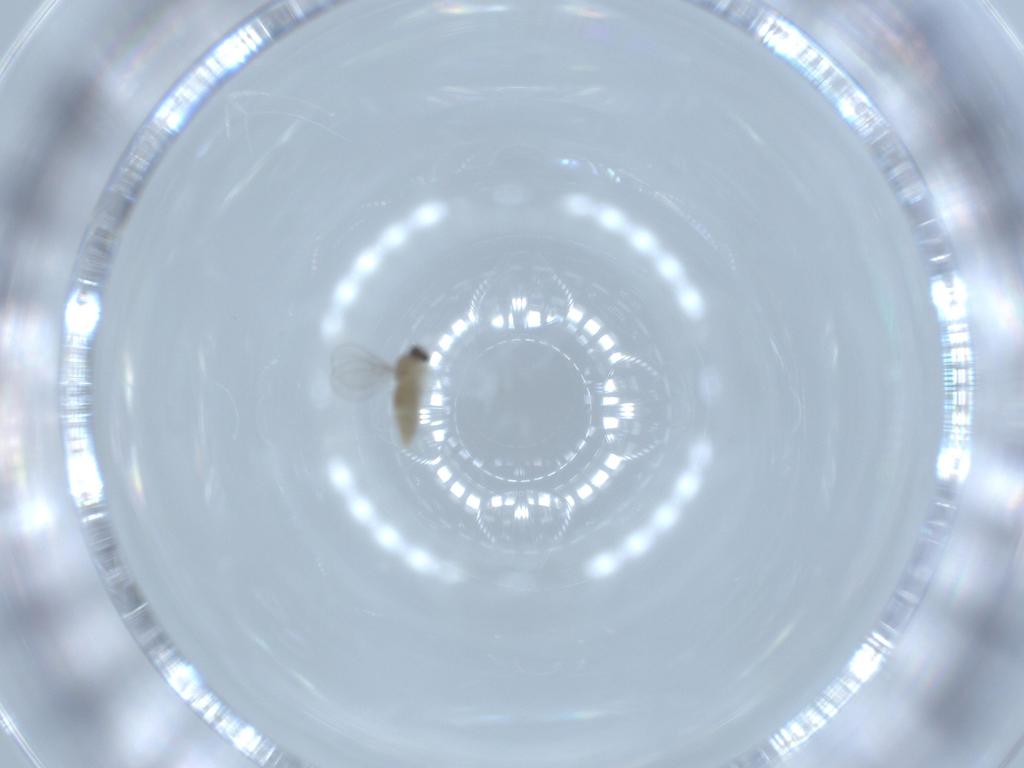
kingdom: Animalia
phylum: Arthropoda
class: Insecta
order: Diptera
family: Cecidomyiidae
